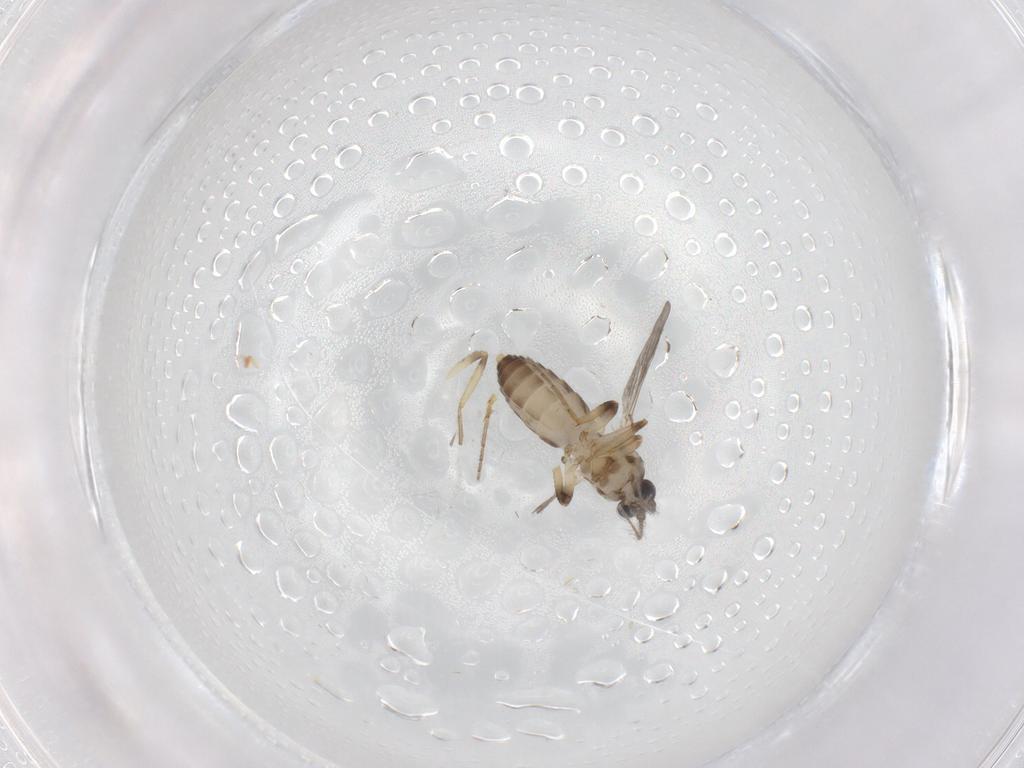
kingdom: Animalia
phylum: Arthropoda
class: Insecta
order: Diptera
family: Ceratopogonidae
